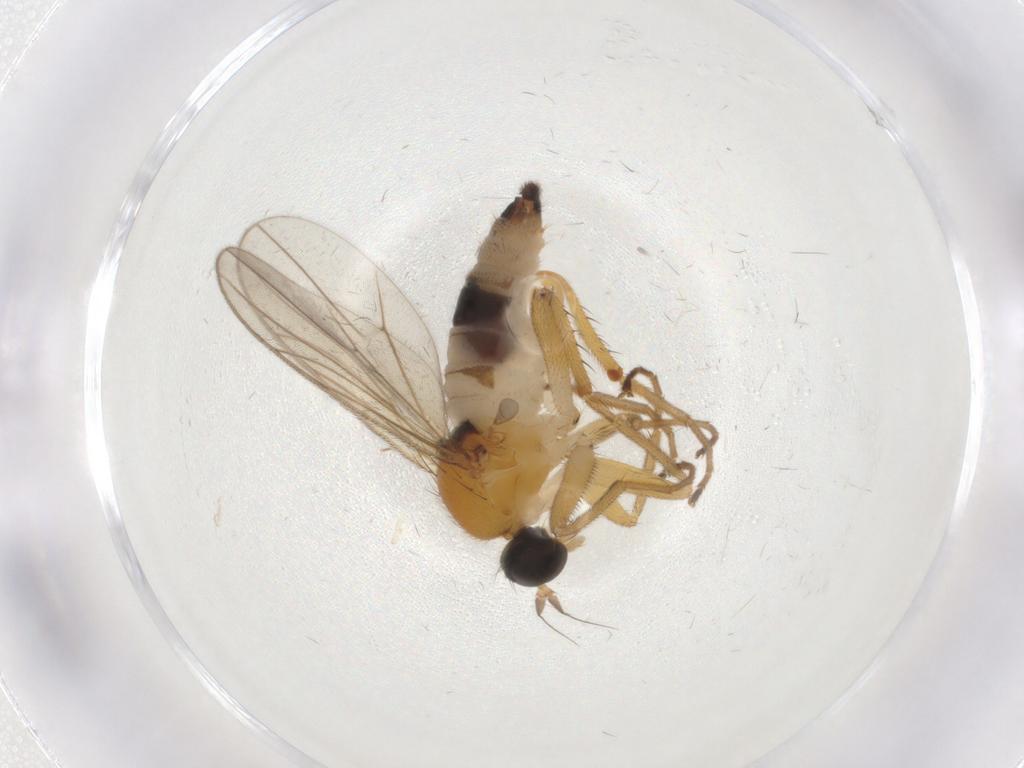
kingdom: Animalia
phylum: Arthropoda
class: Insecta
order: Diptera
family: Hybotidae
